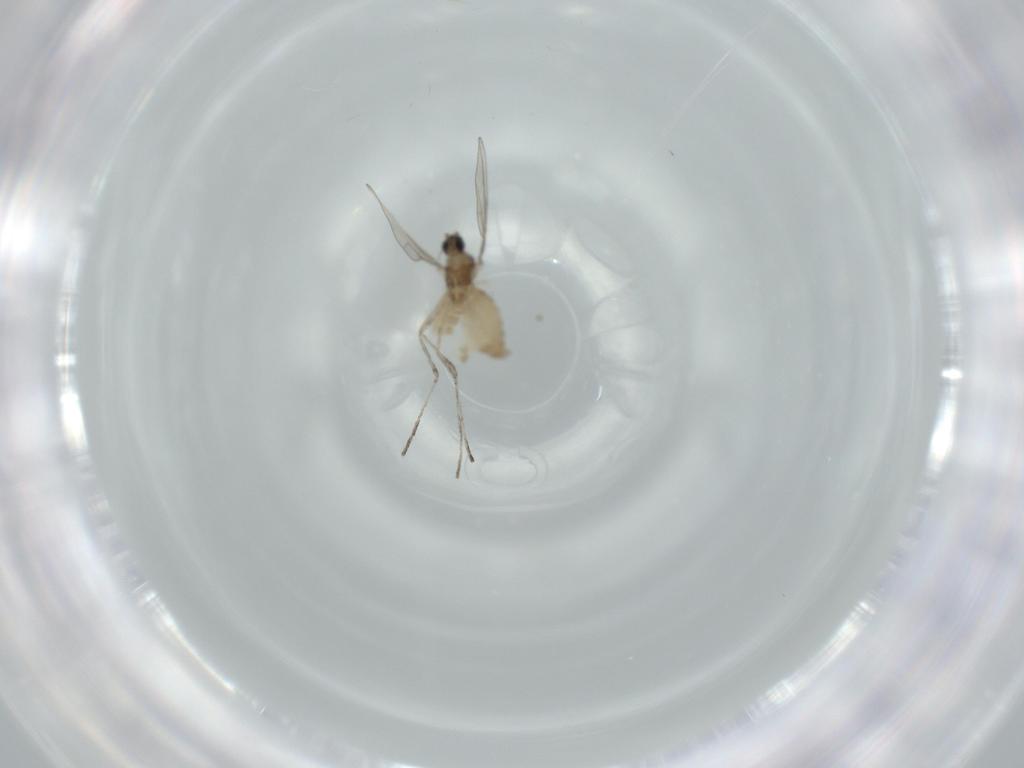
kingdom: Animalia
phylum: Arthropoda
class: Insecta
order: Diptera
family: Cecidomyiidae
